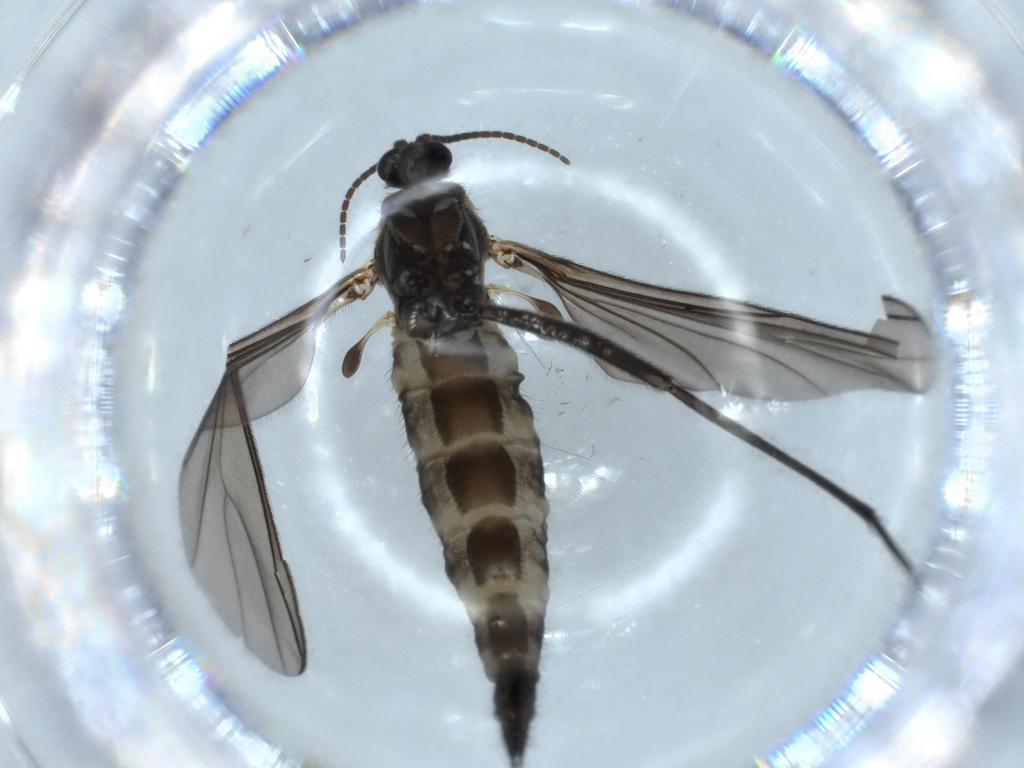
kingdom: Animalia
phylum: Arthropoda
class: Insecta
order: Diptera
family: Sciaridae
